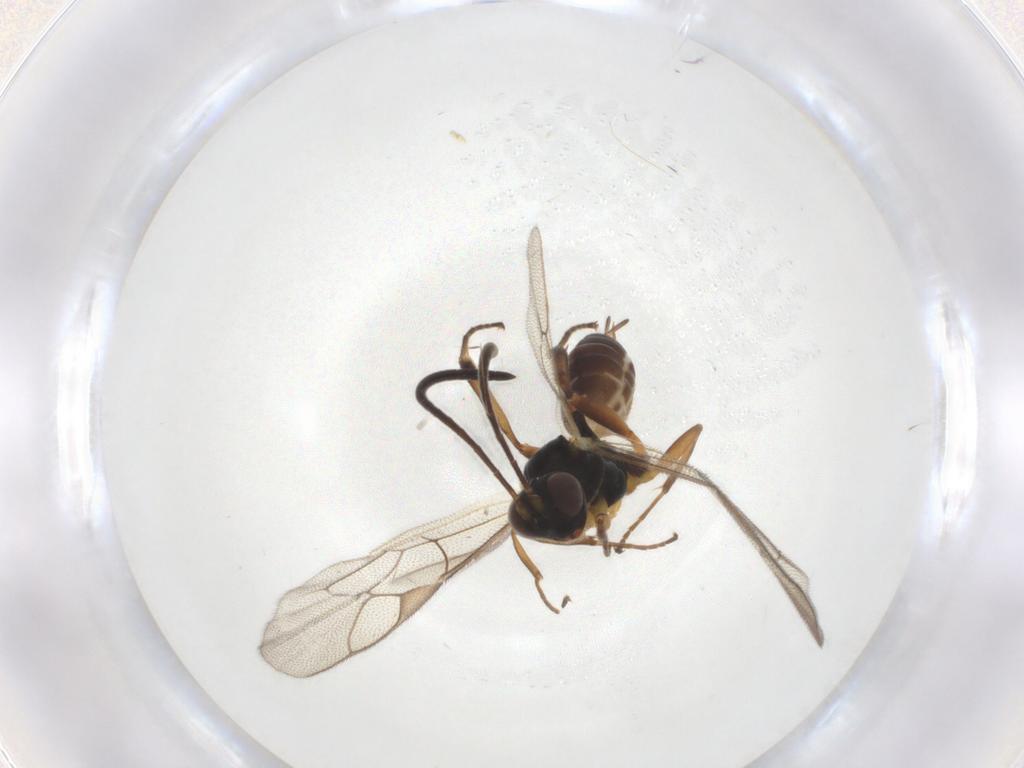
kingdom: Animalia
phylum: Arthropoda
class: Insecta
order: Hymenoptera
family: Ichneumonidae
